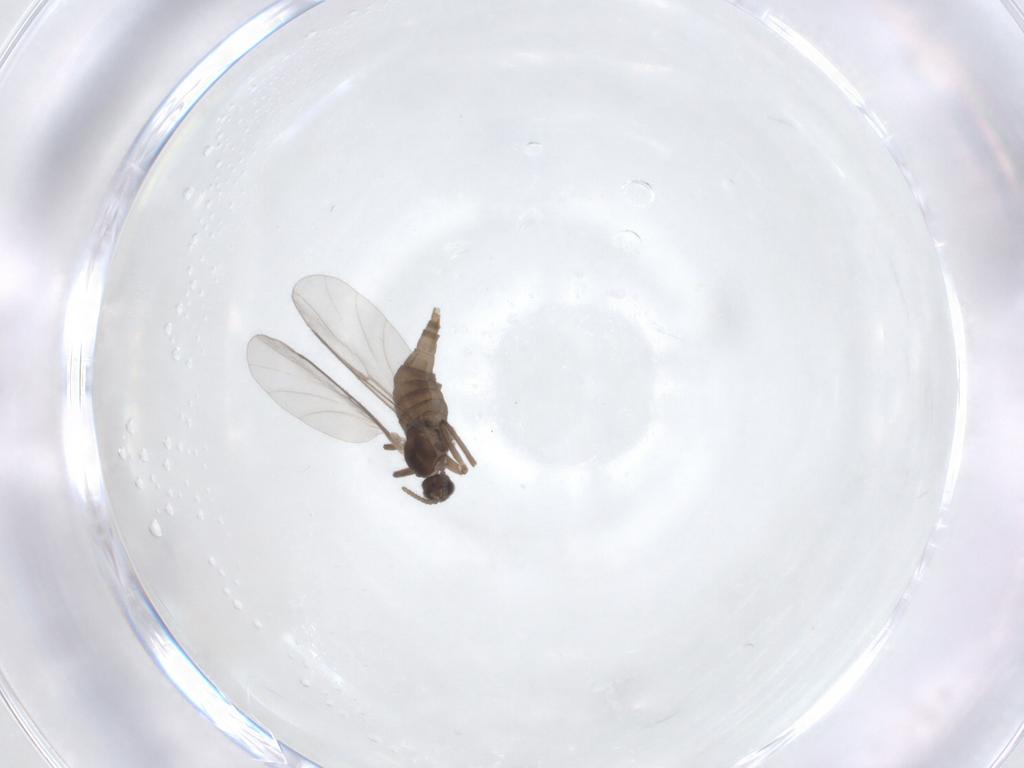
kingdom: Animalia
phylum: Arthropoda
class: Insecta
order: Diptera
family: Cecidomyiidae
